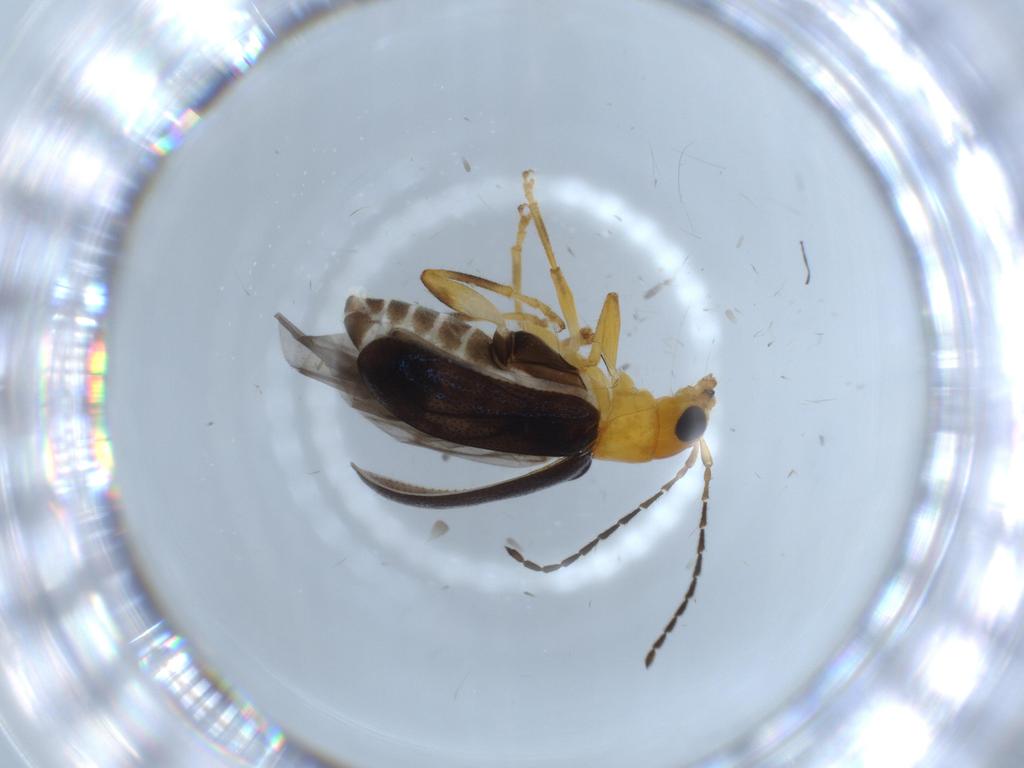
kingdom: Animalia
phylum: Arthropoda
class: Insecta
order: Coleoptera
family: Chrysomelidae
